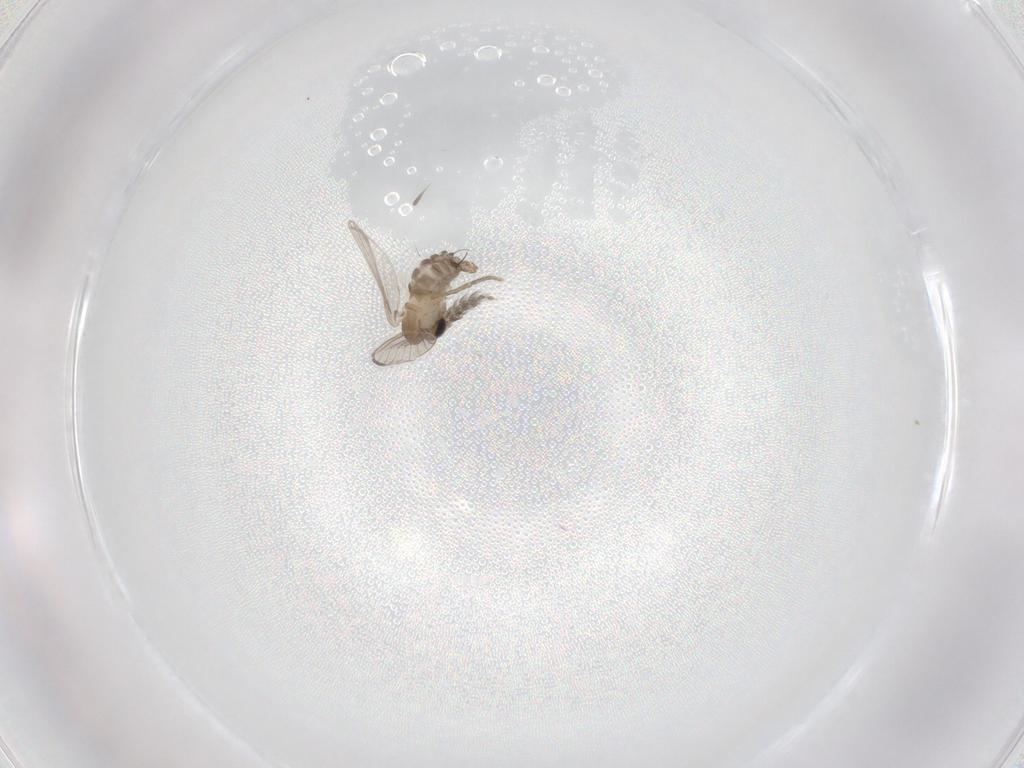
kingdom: Animalia
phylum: Arthropoda
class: Insecta
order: Diptera
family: Psychodidae
